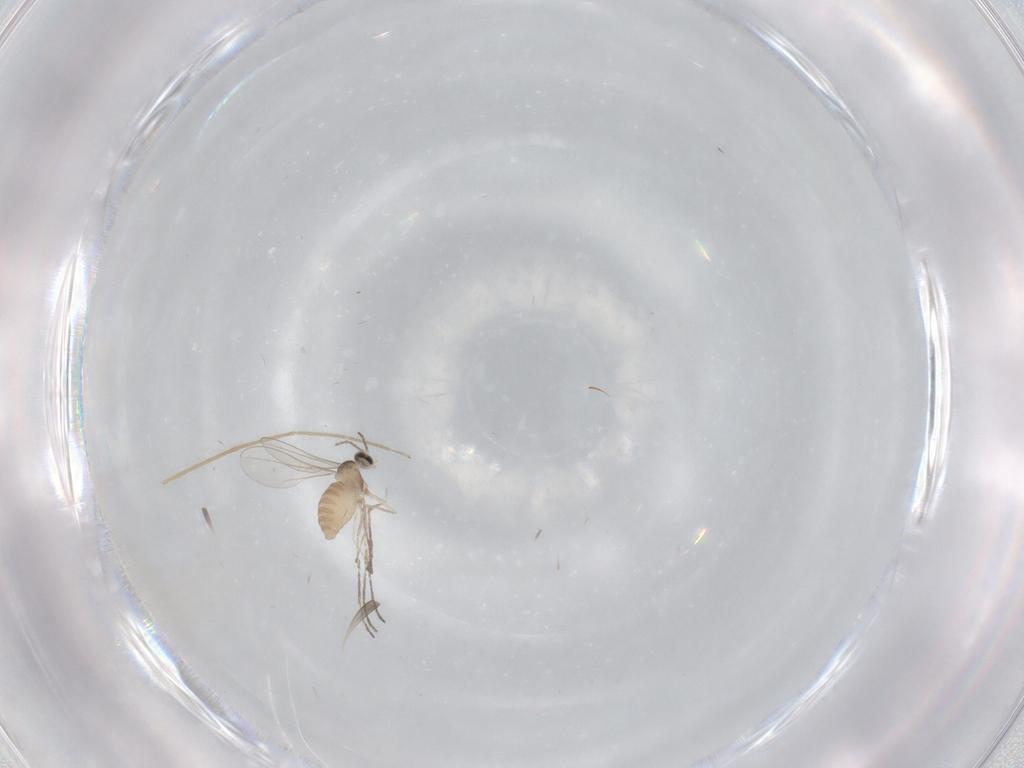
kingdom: Animalia
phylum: Arthropoda
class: Insecta
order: Diptera
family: Cecidomyiidae
